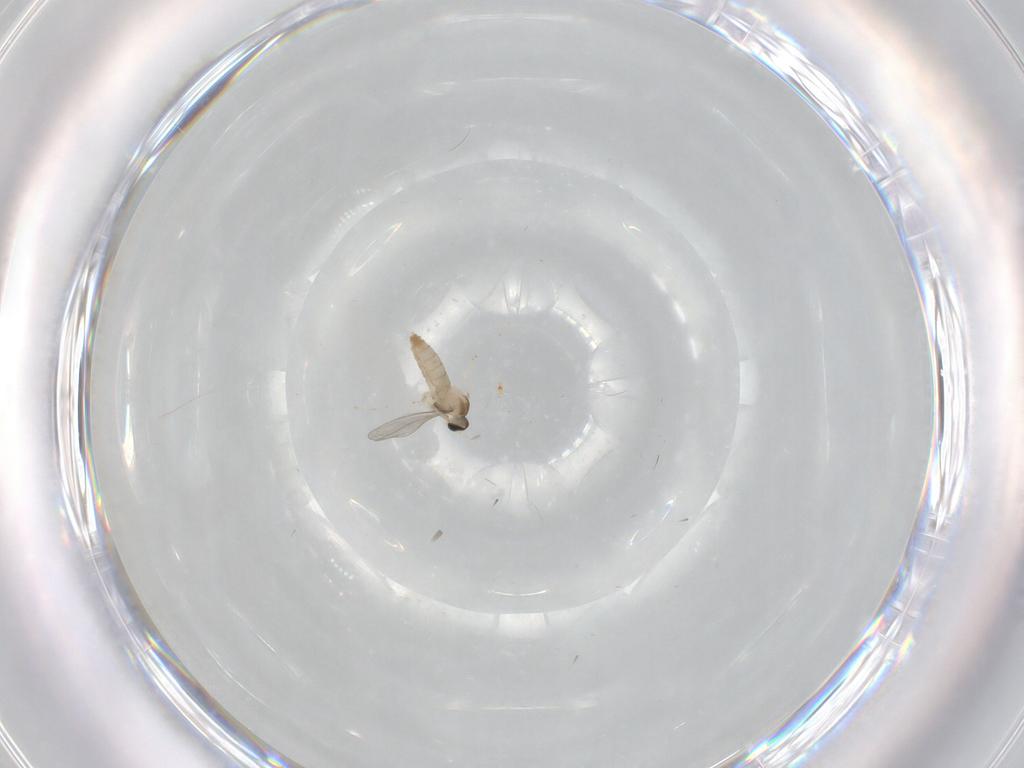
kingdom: Animalia
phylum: Arthropoda
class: Insecta
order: Diptera
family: Cecidomyiidae
